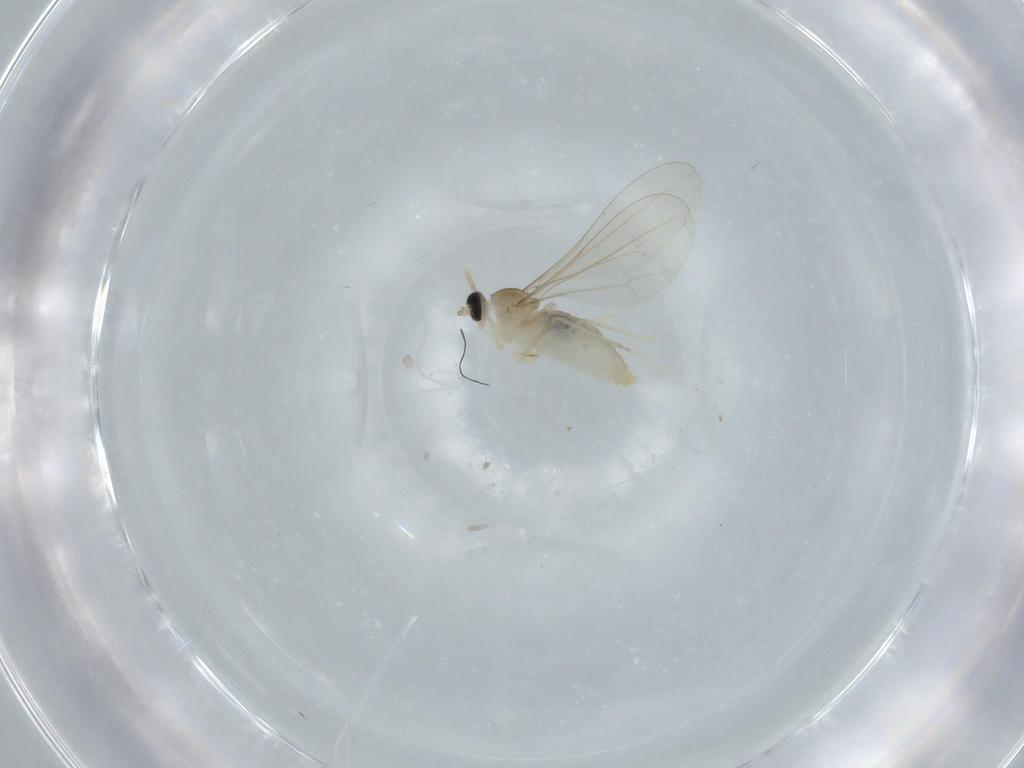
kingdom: Animalia
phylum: Arthropoda
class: Insecta
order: Diptera
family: Cecidomyiidae
